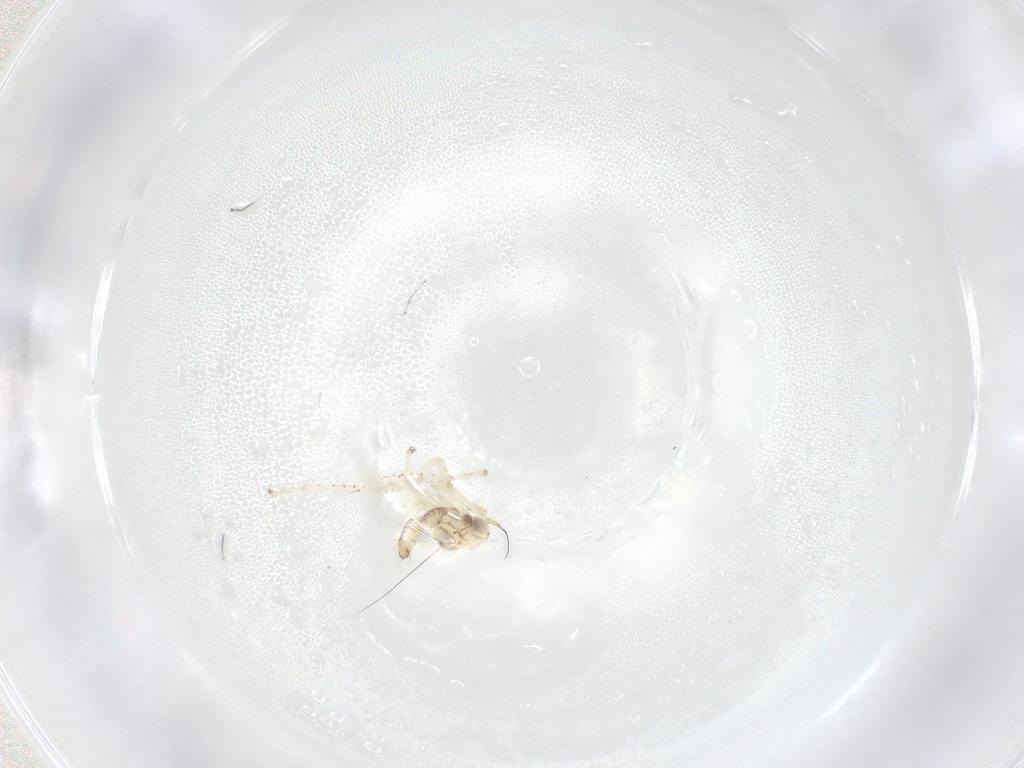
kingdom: Animalia
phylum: Arthropoda
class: Insecta
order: Hemiptera
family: Cicadellidae
